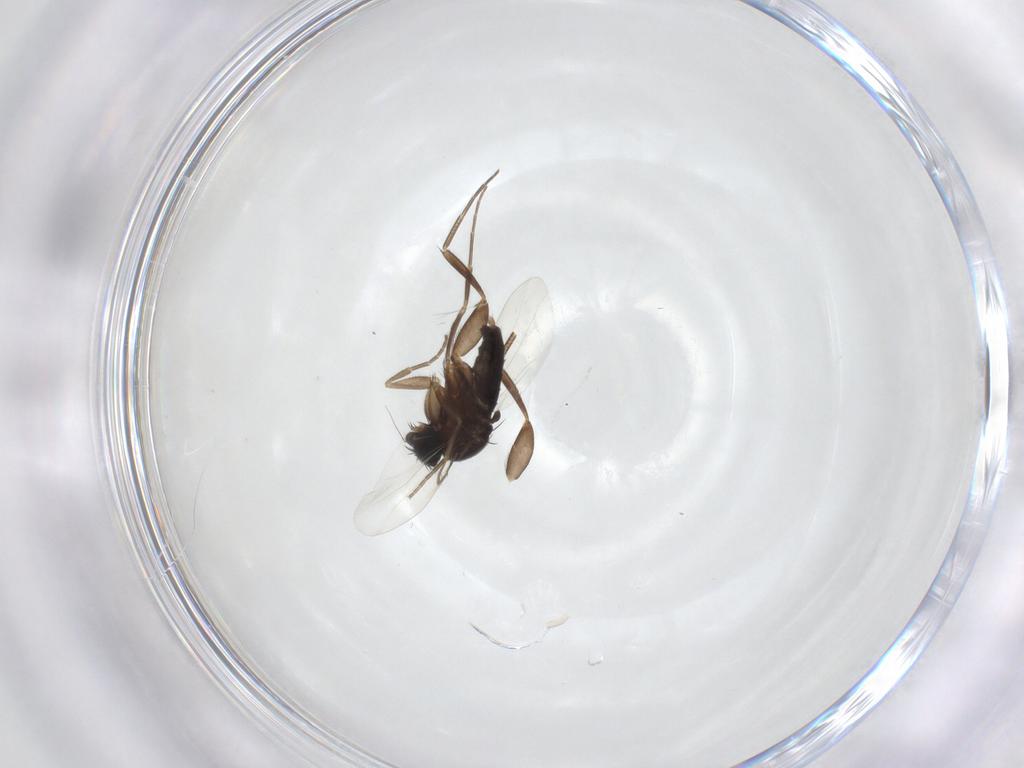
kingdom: Animalia
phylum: Arthropoda
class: Insecta
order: Diptera
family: Phoridae
